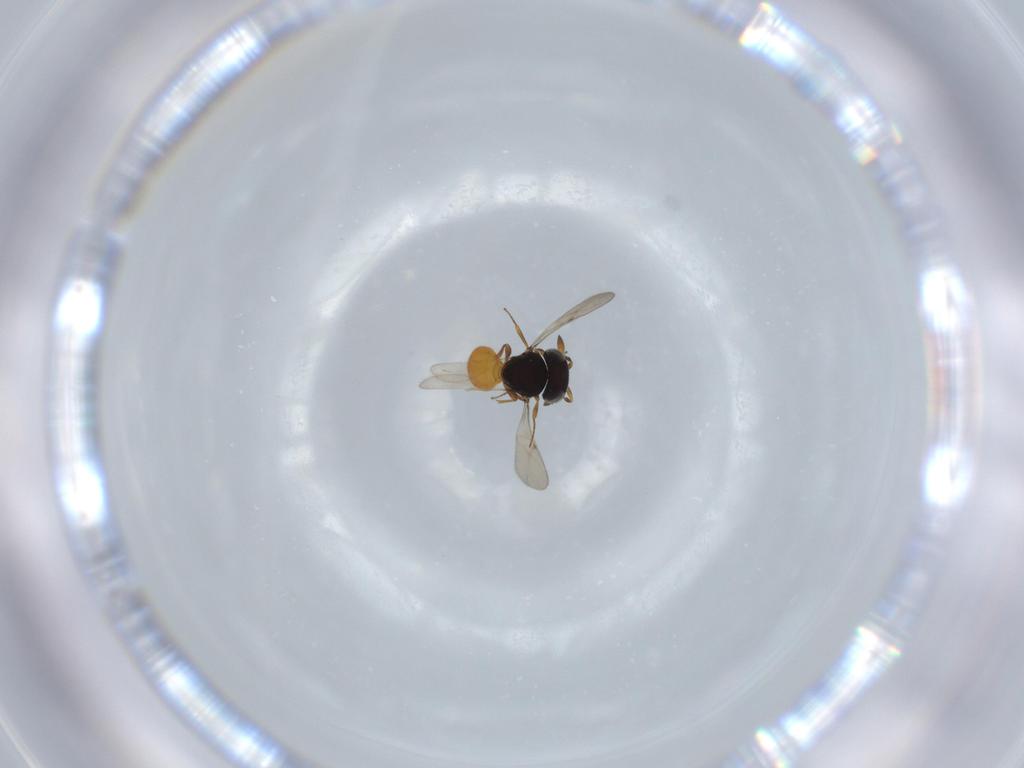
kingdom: Animalia
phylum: Arthropoda
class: Insecta
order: Hymenoptera
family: Scelionidae
